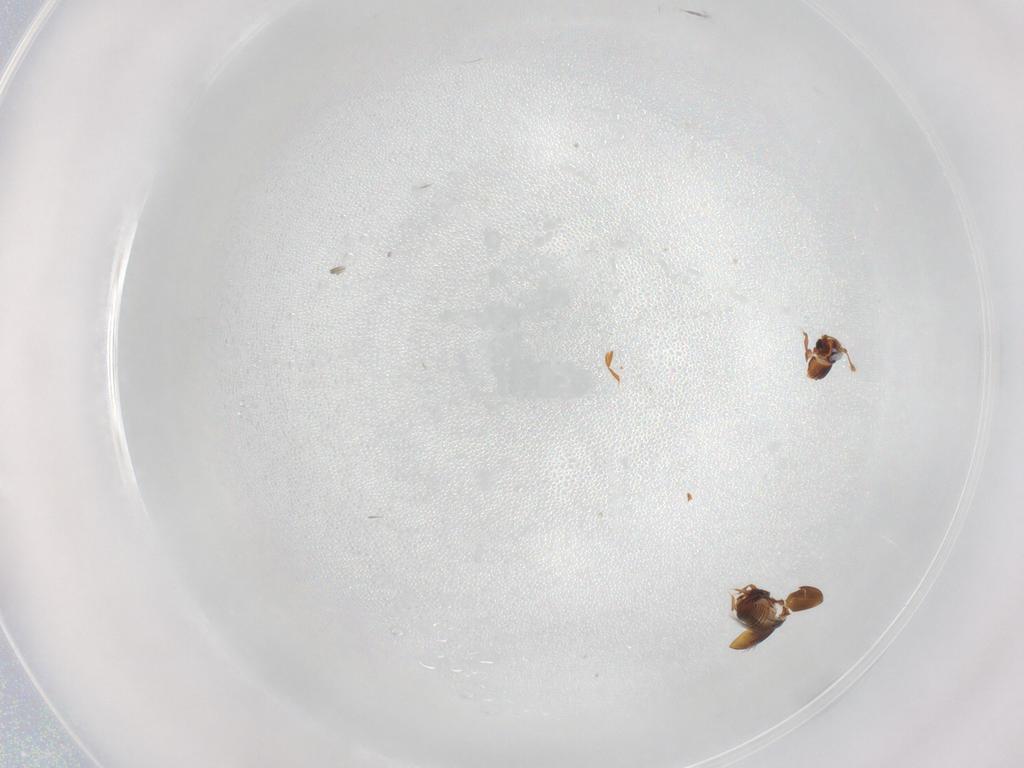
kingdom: Animalia
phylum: Arthropoda
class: Insecta
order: Coleoptera
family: Ptiliidae
